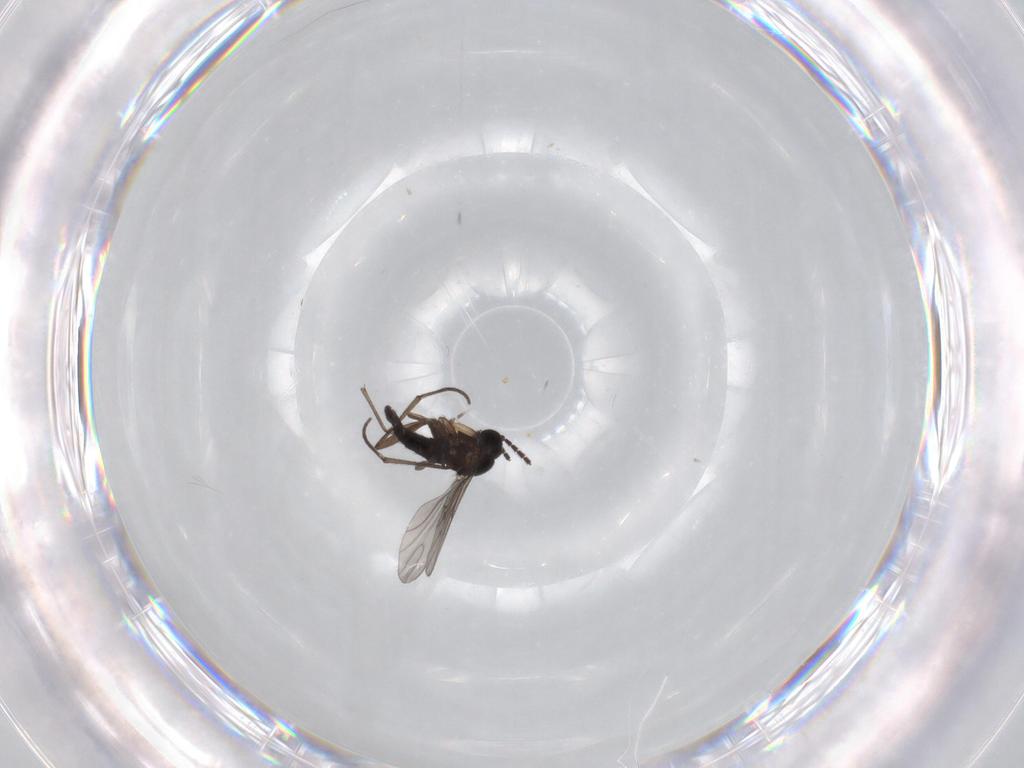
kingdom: Animalia
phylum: Arthropoda
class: Insecta
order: Diptera
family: Sciaridae
